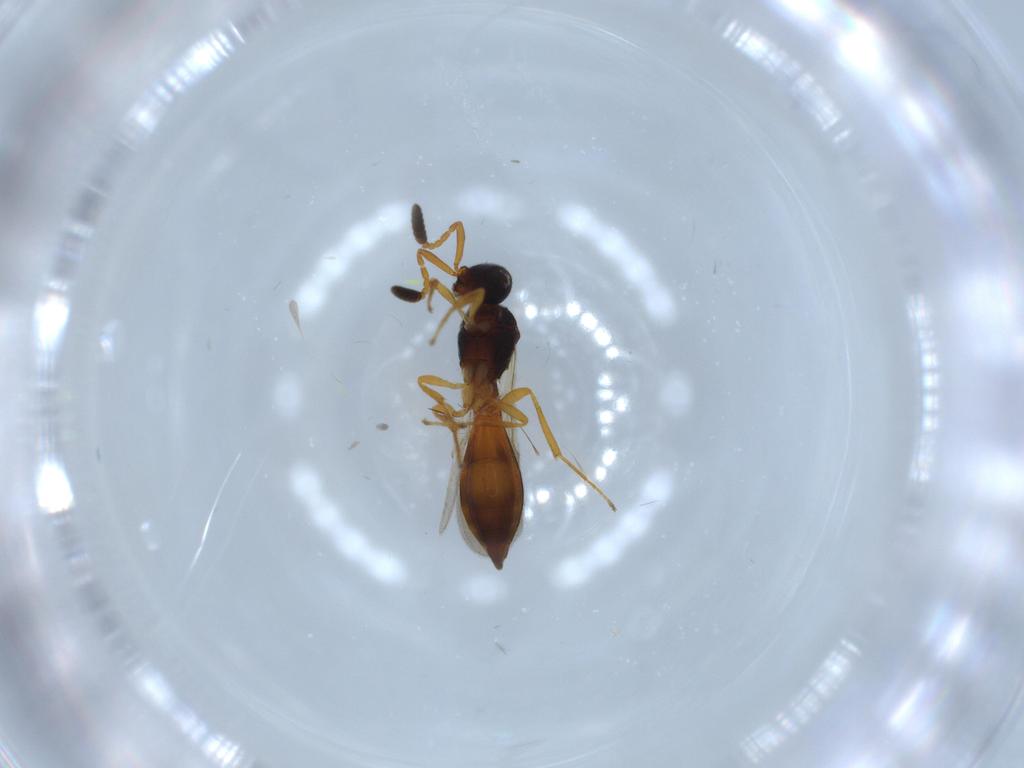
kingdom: Animalia
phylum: Arthropoda
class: Insecta
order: Hymenoptera
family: Scelionidae
